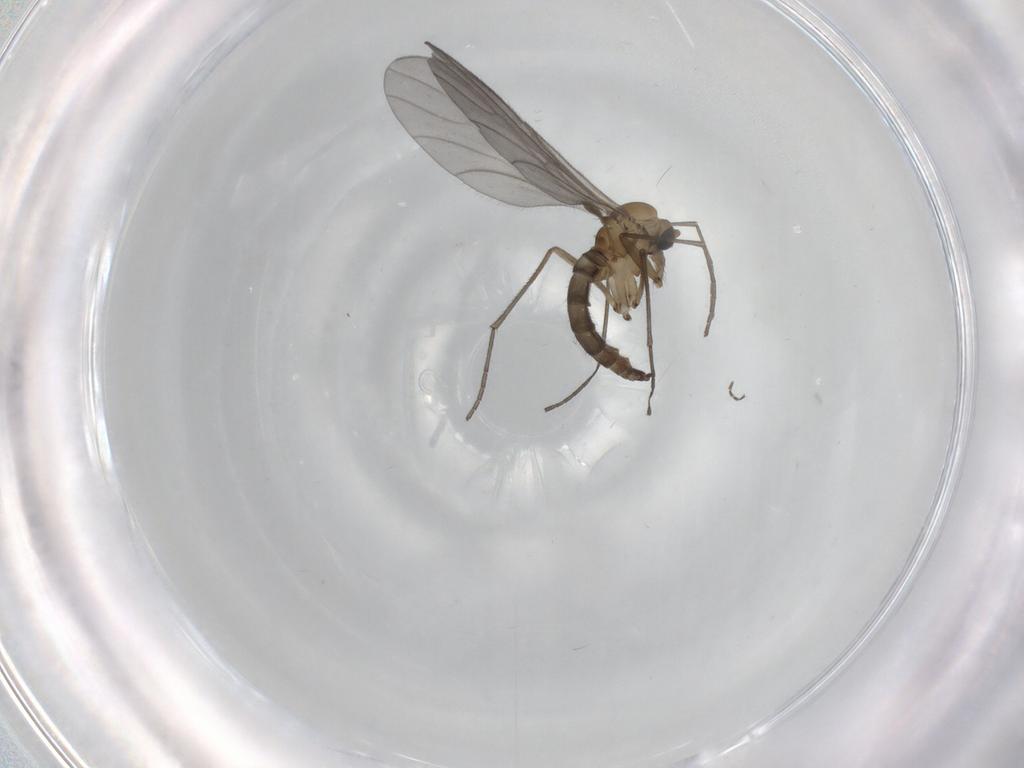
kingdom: Animalia
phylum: Arthropoda
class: Insecta
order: Diptera
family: Sciaridae
